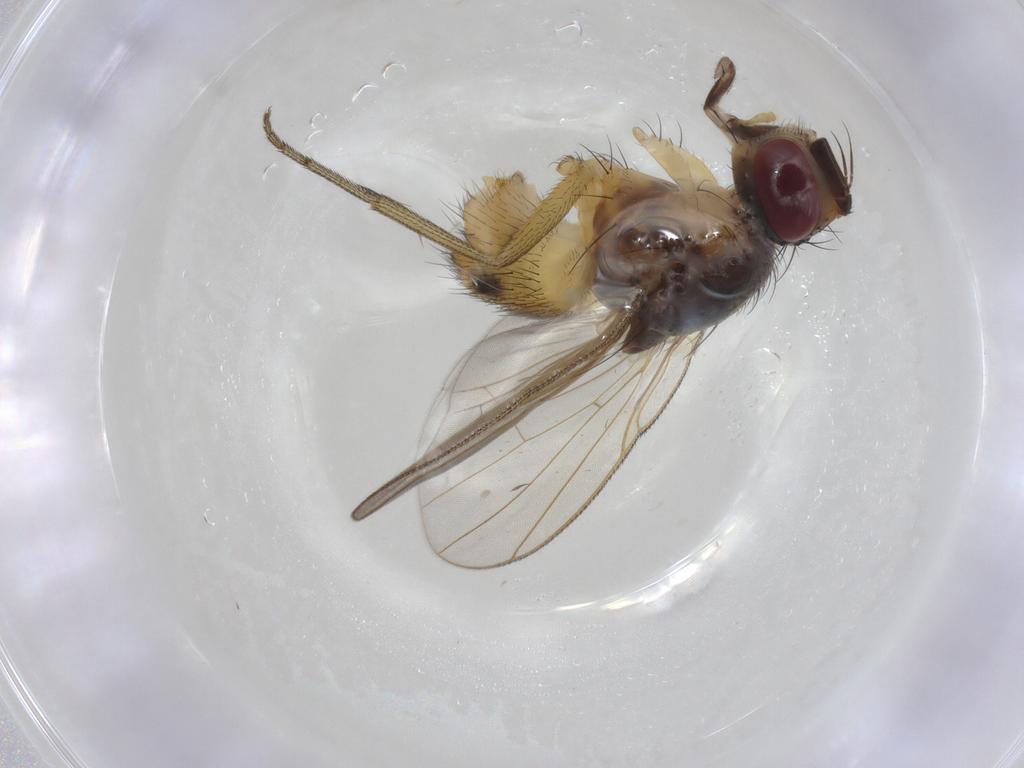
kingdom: Animalia
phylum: Arthropoda
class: Insecta
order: Diptera
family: Muscidae
